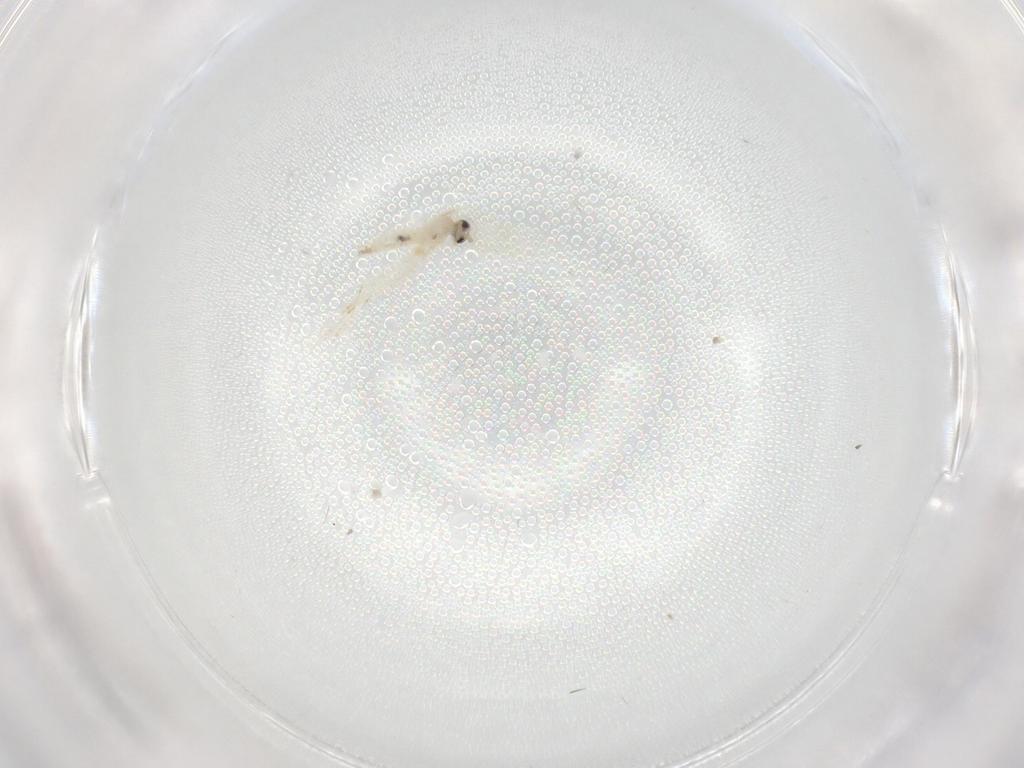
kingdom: Animalia
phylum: Arthropoda
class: Insecta
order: Diptera
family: Cecidomyiidae
